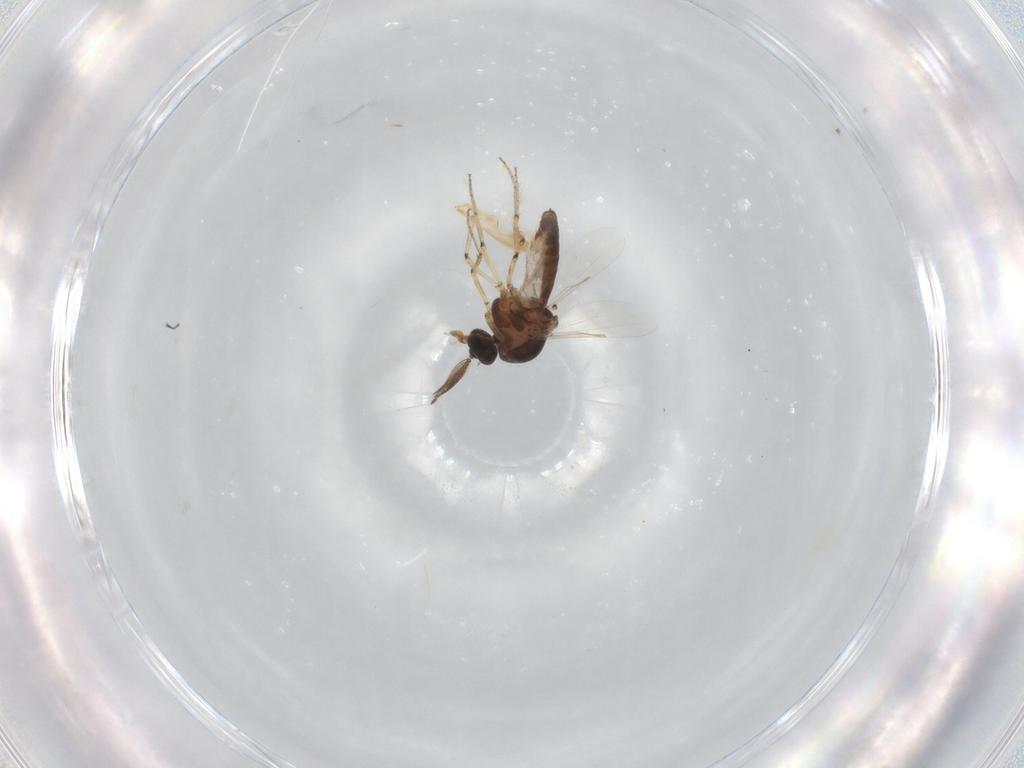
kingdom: Animalia
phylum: Arthropoda
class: Insecta
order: Diptera
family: Ceratopogonidae
